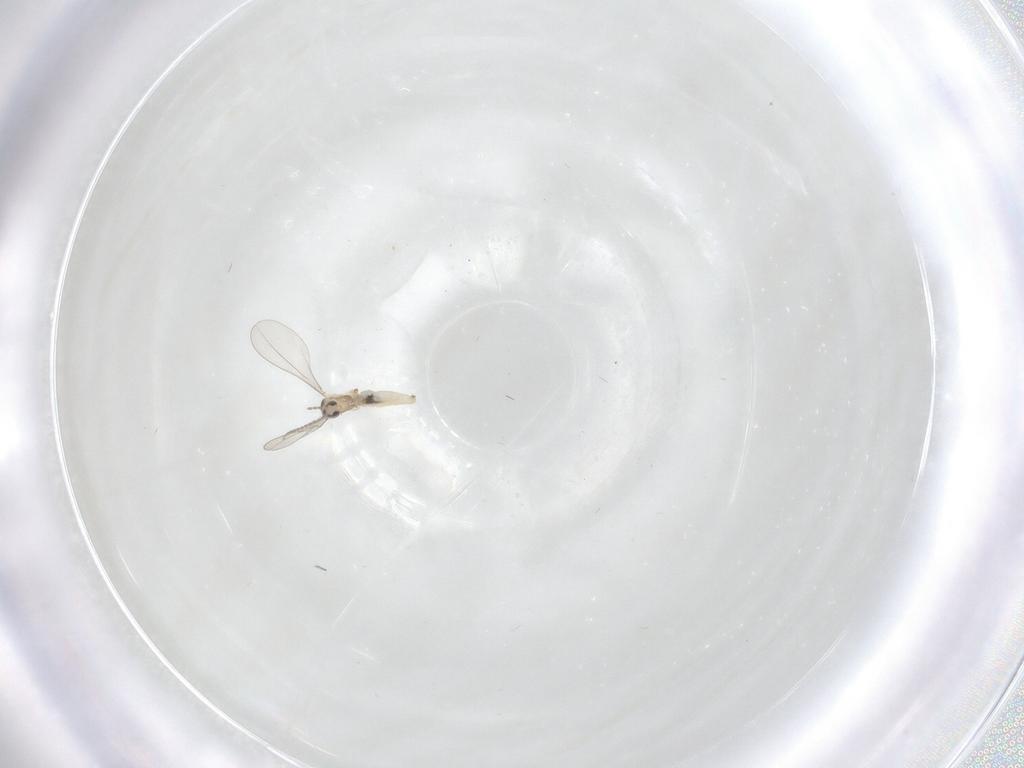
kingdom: Animalia
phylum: Arthropoda
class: Insecta
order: Diptera
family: Cecidomyiidae
